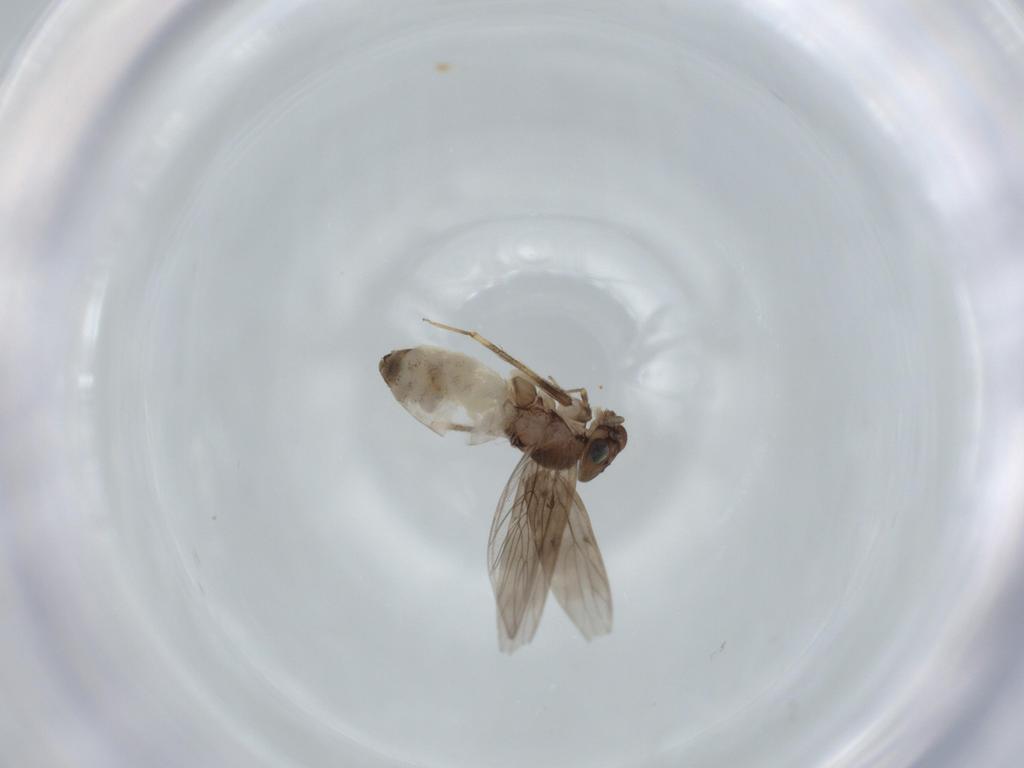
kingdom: Animalia
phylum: Arthropoda
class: Insecta
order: Psocodea
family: Lepidopsocidae
